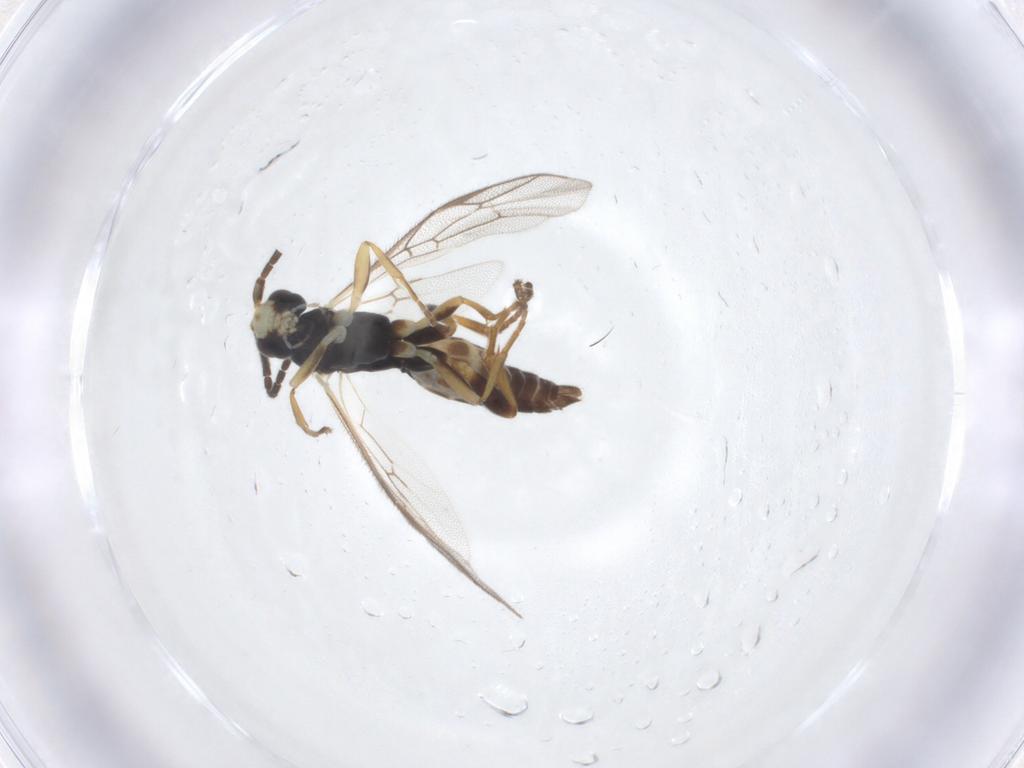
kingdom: Animalia
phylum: Arthropoda
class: Insecta
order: Hymenoptera
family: Ichneumonidae
